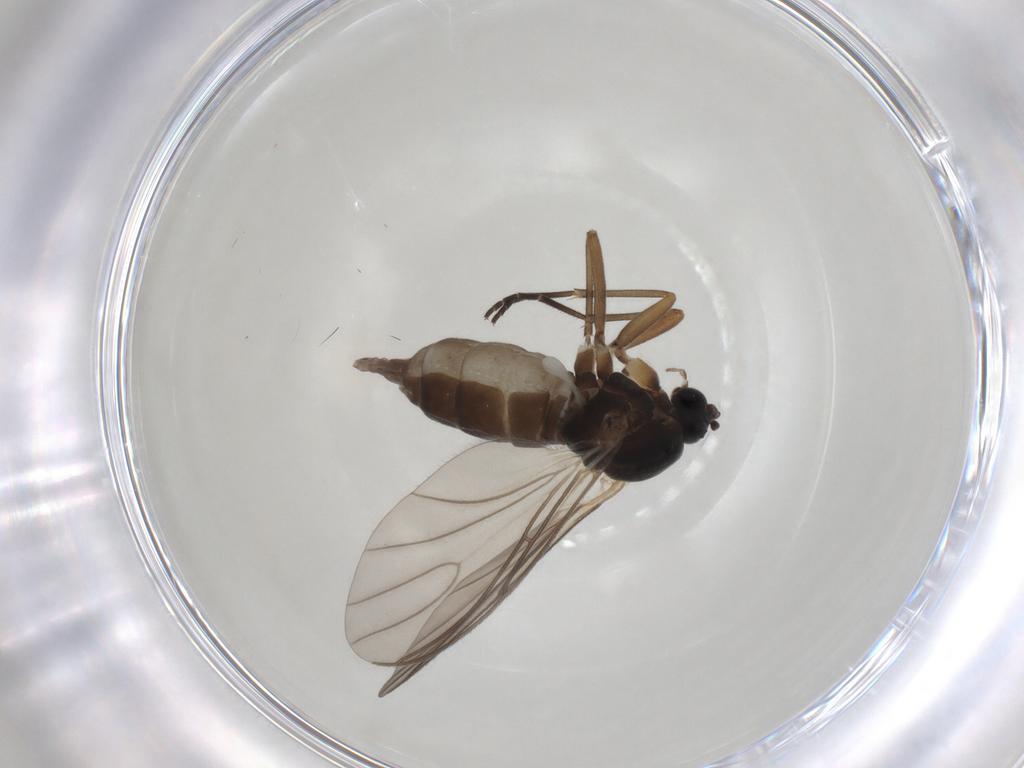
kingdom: Animalia
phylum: Arthropoda
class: Insecta
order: Diptera
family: Sciaridae
